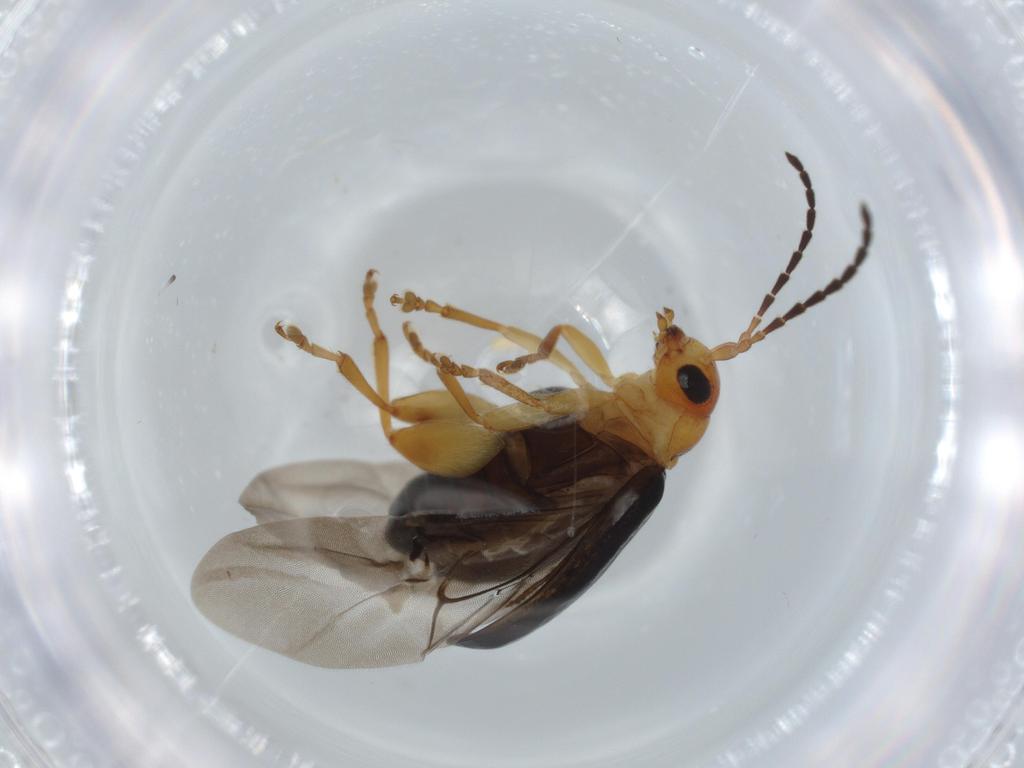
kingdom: Animalia
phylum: Arthropoda
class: Insecta
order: Coleoptera
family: Chrysomelidae
